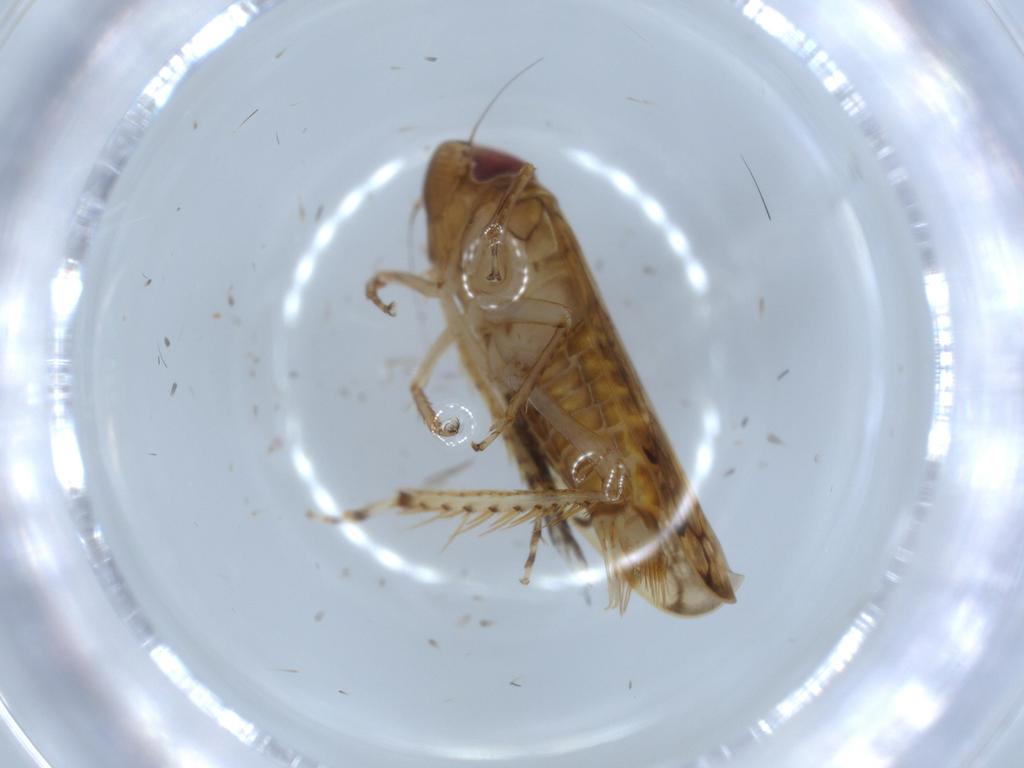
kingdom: Animalia
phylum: Arthropoda
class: Insecta
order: Hemiptera
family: Cicadellidae
